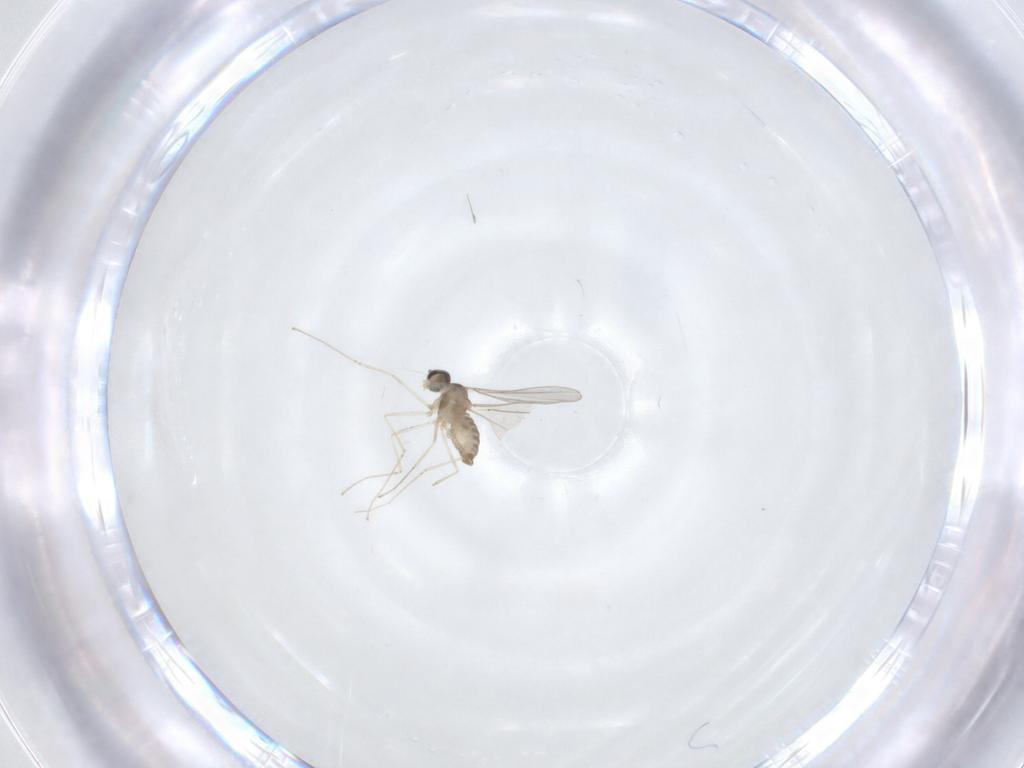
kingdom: Animalia
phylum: Arthropoda
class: Insecta
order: Diptera
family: Cecidomyiidae
